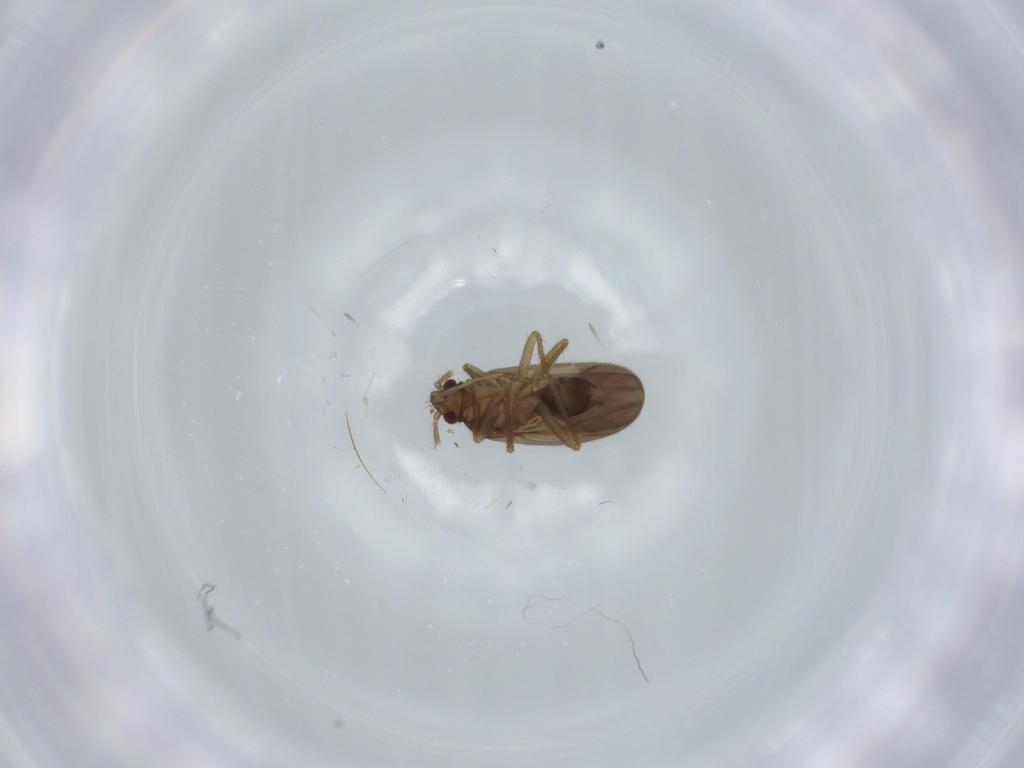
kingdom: Animalia
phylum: Arthropoda
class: Insecta
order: Hemiptera
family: Ceratocombidae
